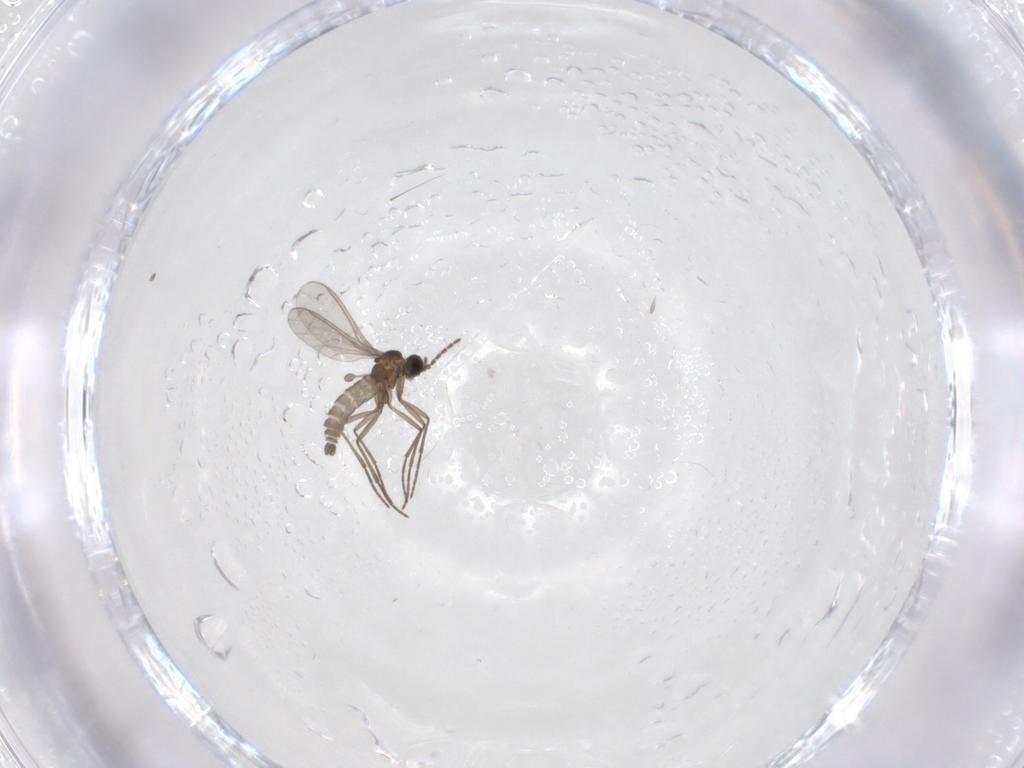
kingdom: Animalia
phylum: Arthropoda
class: Insecta
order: Diptera
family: Sciaridae
